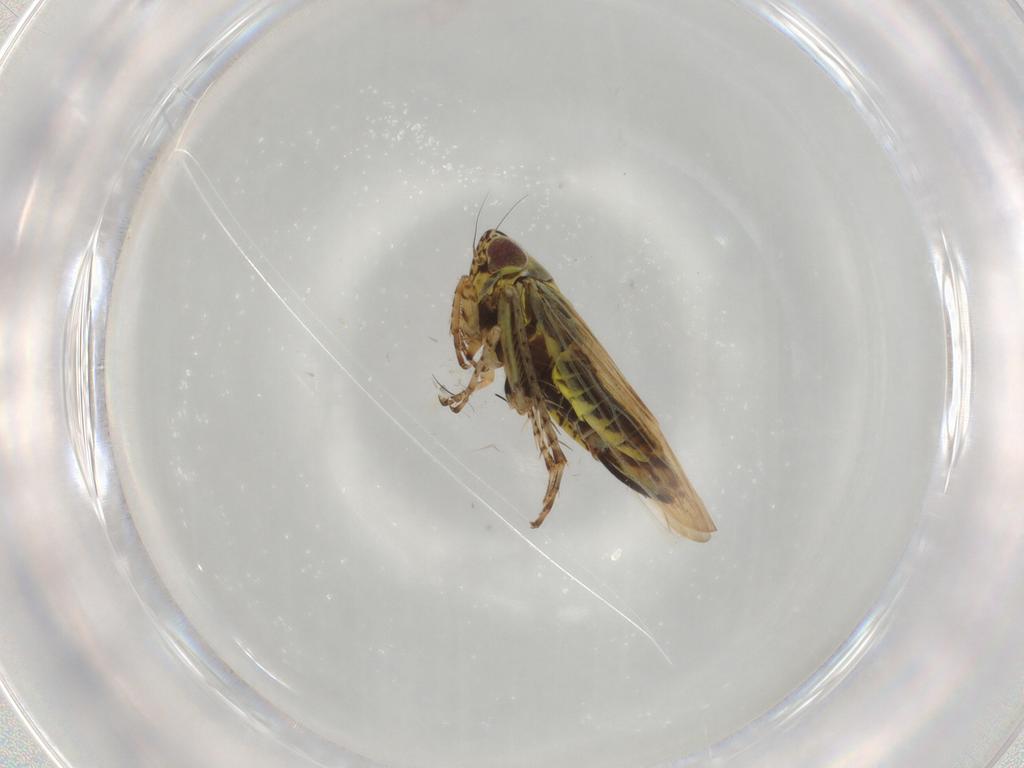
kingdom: Animalia
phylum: Arthropoda
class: Insecta
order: Hemiptera
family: Cicadellidae
